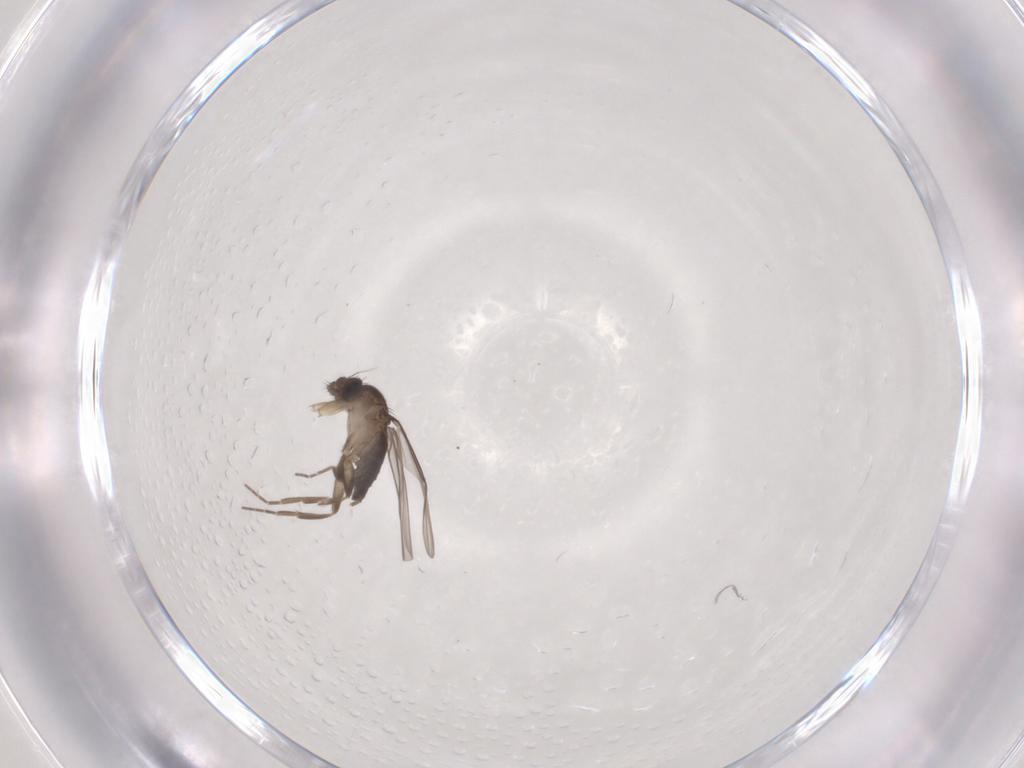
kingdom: Animalia
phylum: Arthropoda
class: Insecta
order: Diptera
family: Phoridae
